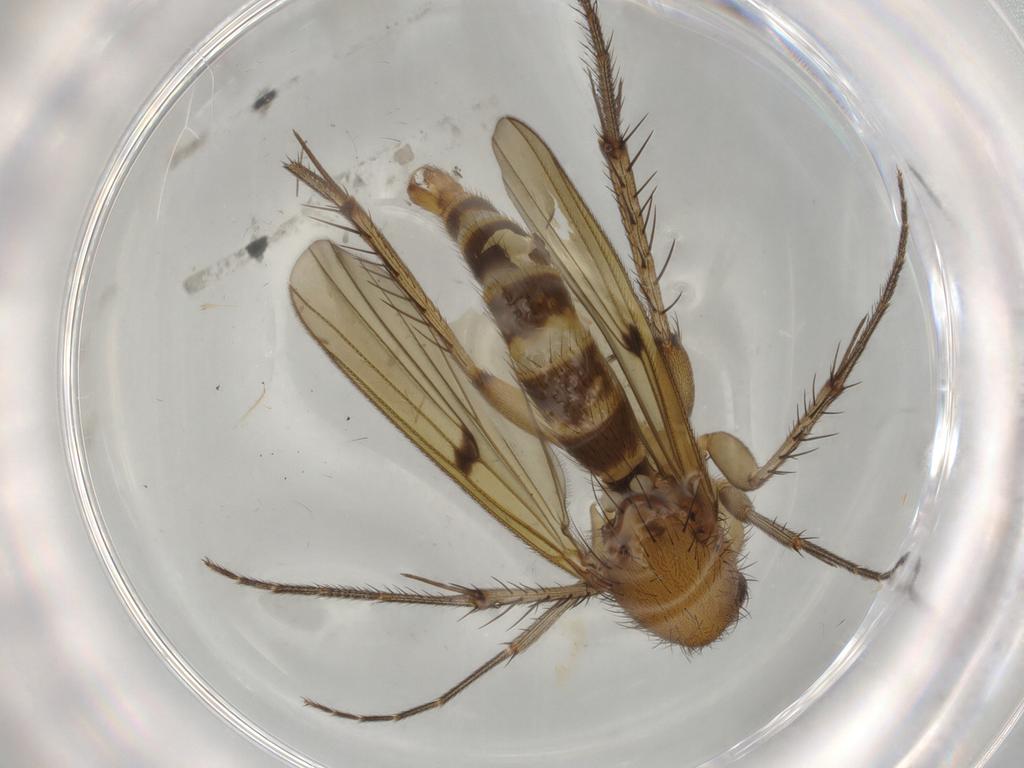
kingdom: Animalia
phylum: Arthropoda
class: Insecta
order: Diptera
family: Mycetophilidae
